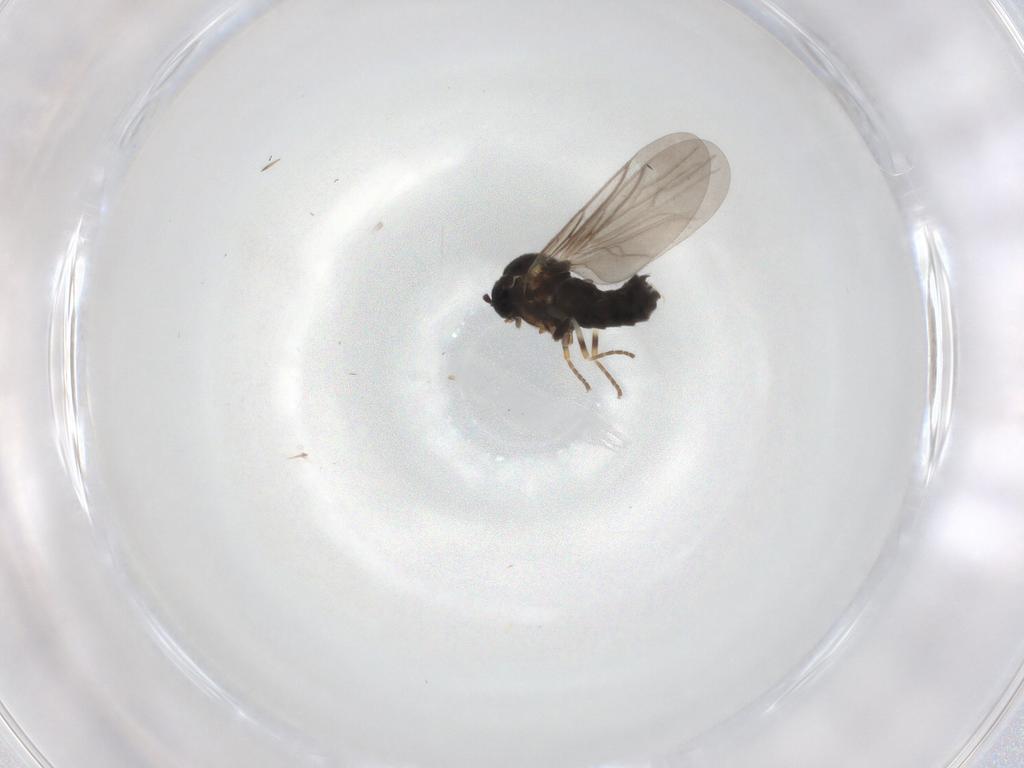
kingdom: Animalia
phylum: Arthropoda
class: Insecta
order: Diptera
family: Scatopsidae
